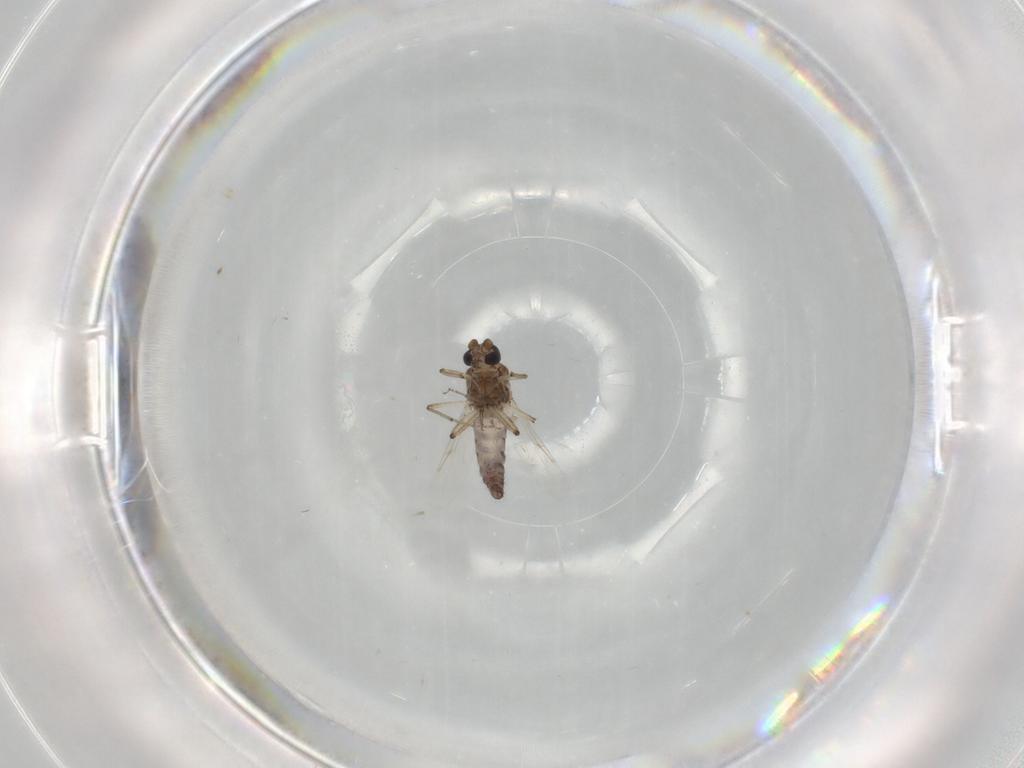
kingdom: Animalia
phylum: Arthropoda
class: Insecta
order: Diptera
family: Ceratopogonidae
